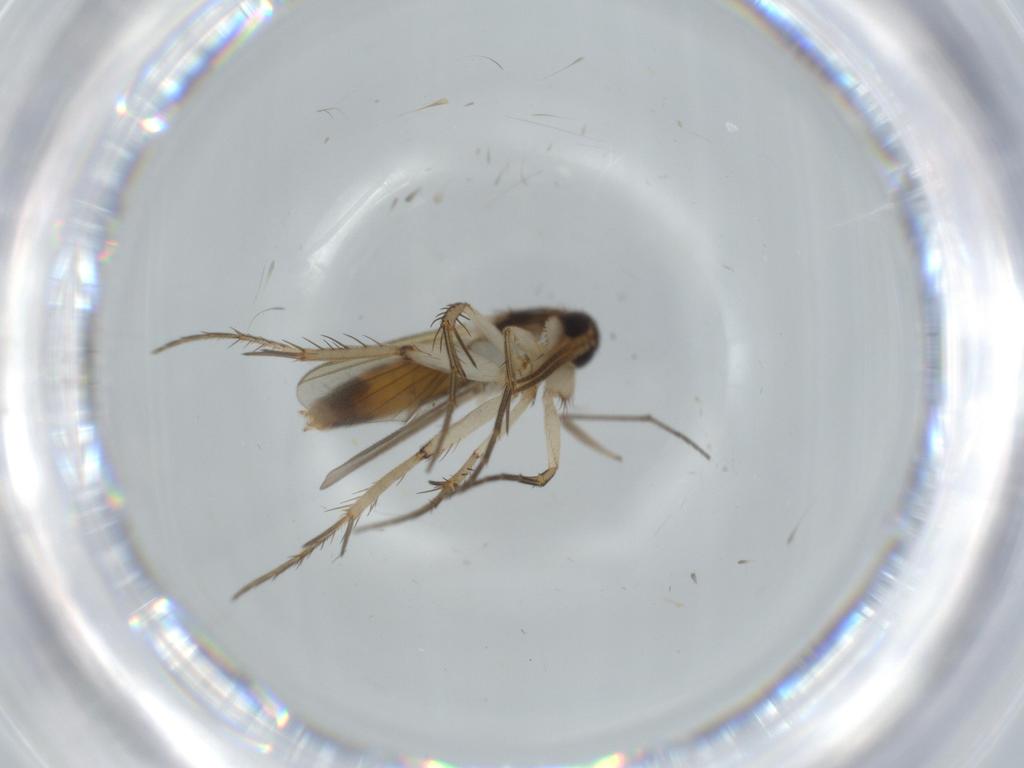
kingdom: Animalia
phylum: Arthropoda
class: Insecta
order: Diptera
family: Mycetophilidae
